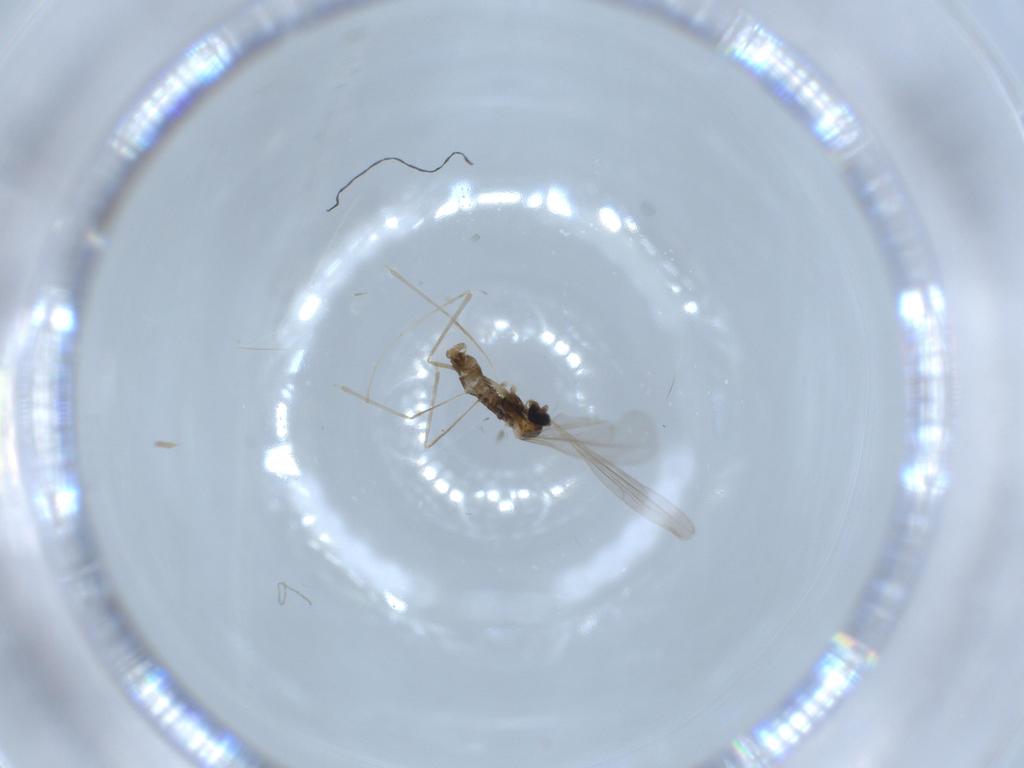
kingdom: Animalia
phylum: Arthropoda
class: Insecta
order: Diptera
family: Cecidomyiidae
